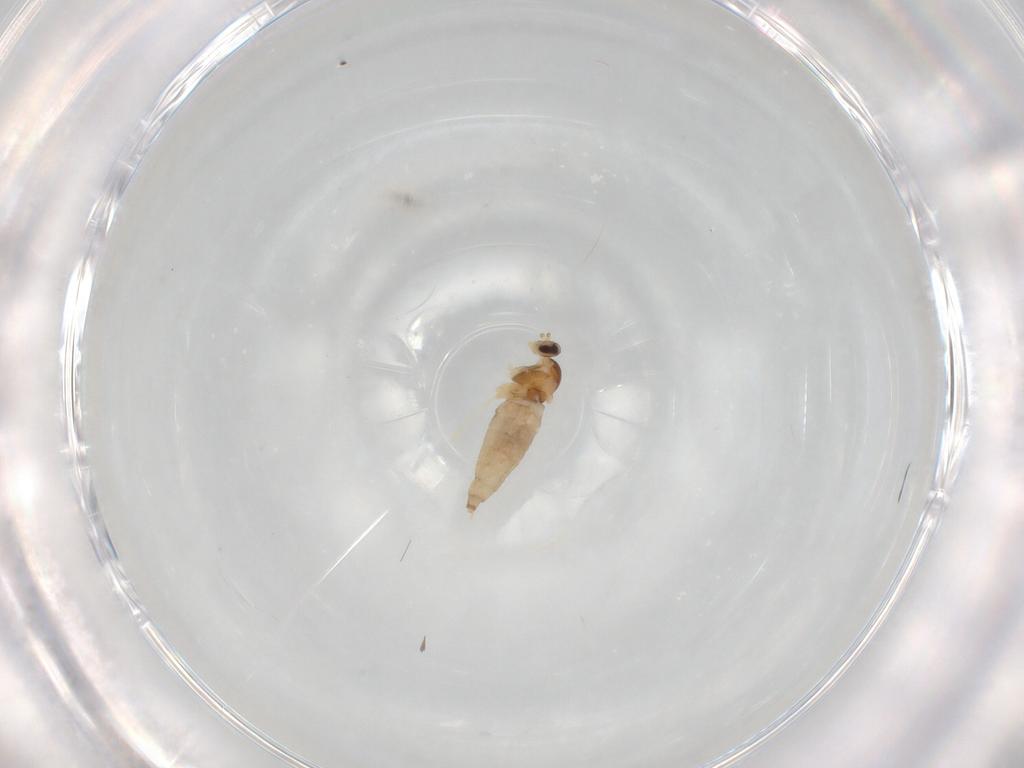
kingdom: Animalia
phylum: Arthropoda
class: Insecta
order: Diptera
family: Cecidomyiidae
